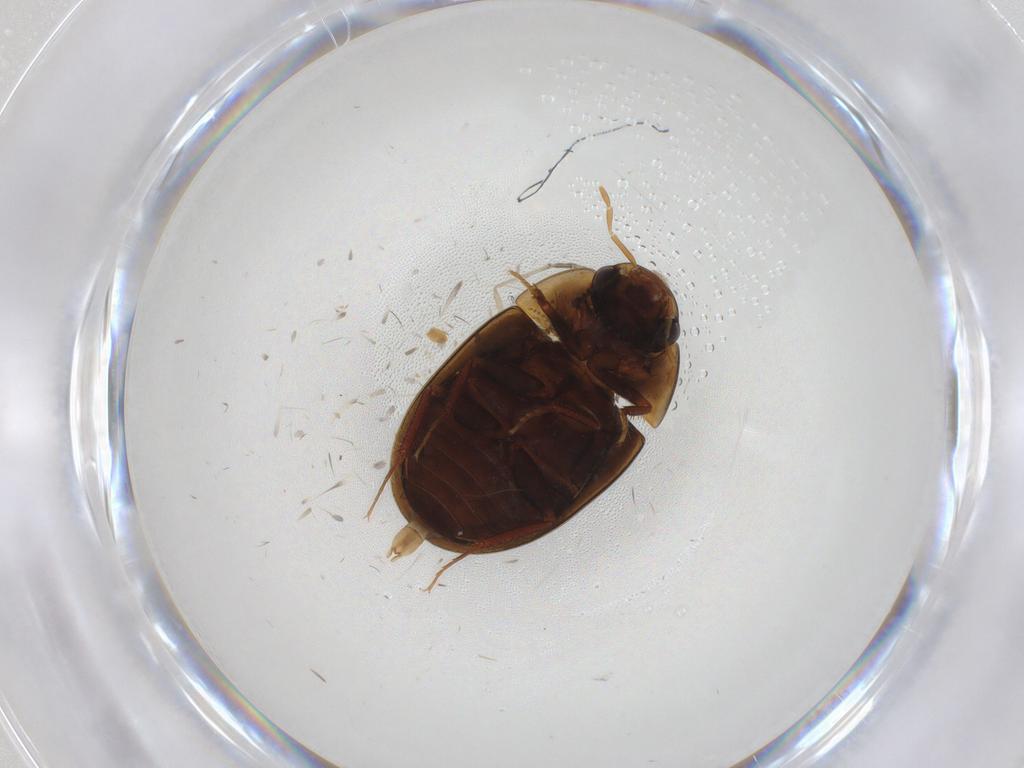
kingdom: Animalia
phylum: Arthropoda
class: Insecta
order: Coleoptera
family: Hydrophilidae
